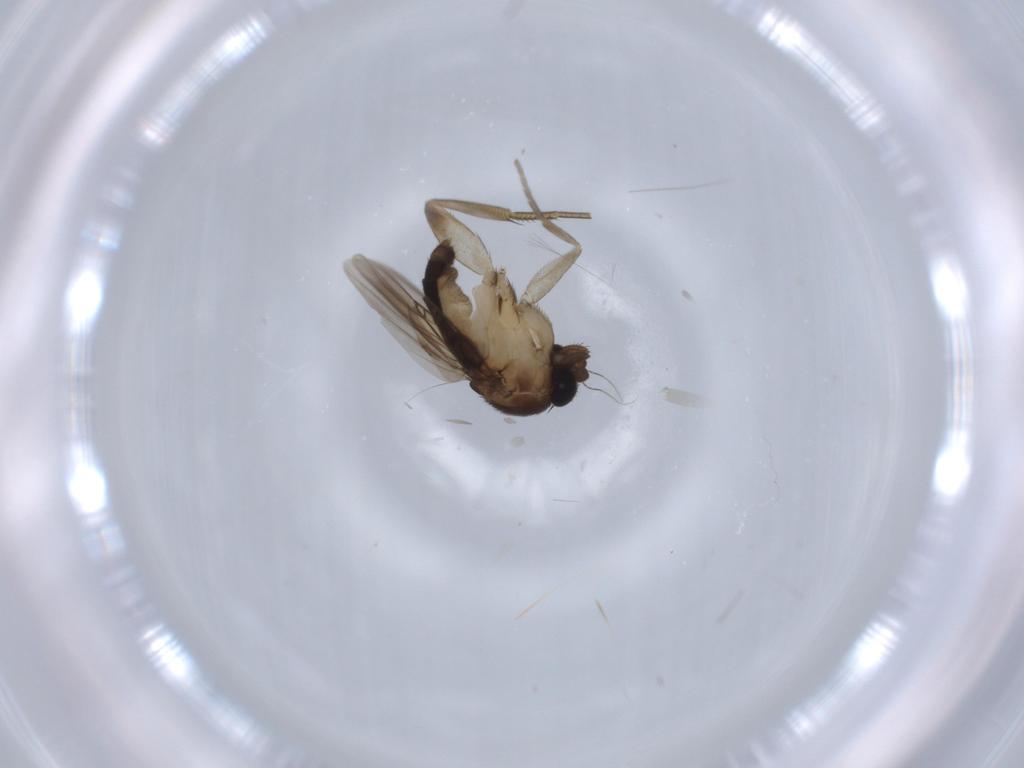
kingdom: Animalia
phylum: Arthropoda
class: Insecta
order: Diptera
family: Phoridae
